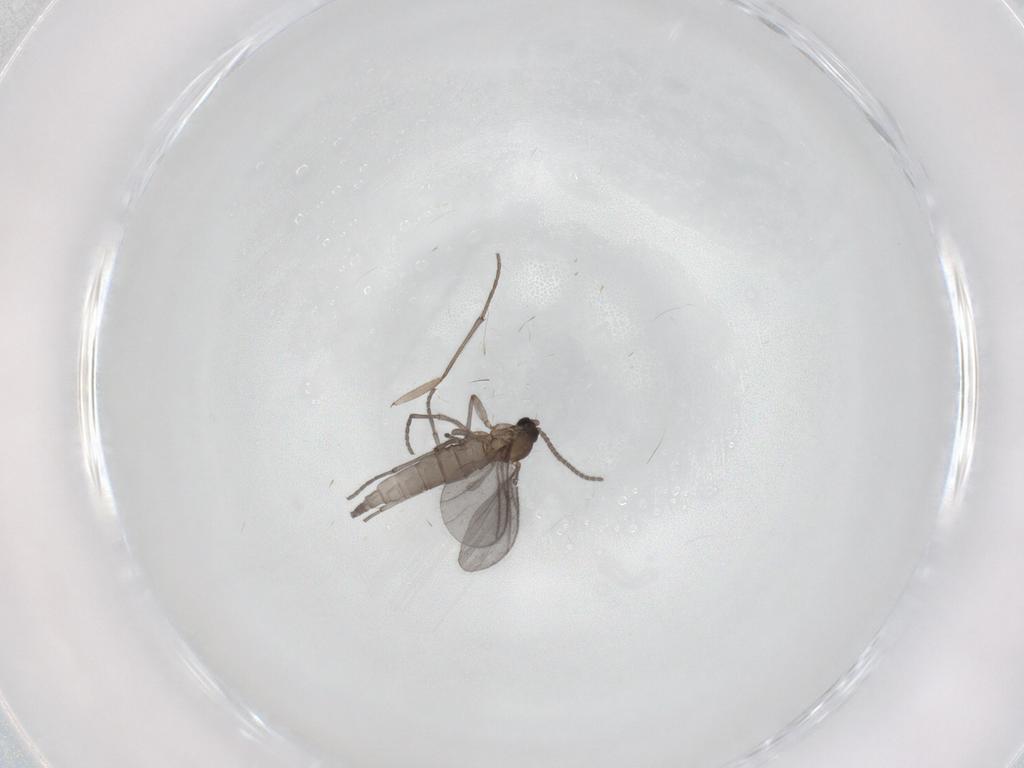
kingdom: Animalia
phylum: Arthropoda
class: Insecta
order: Diptera
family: Sciaridae
